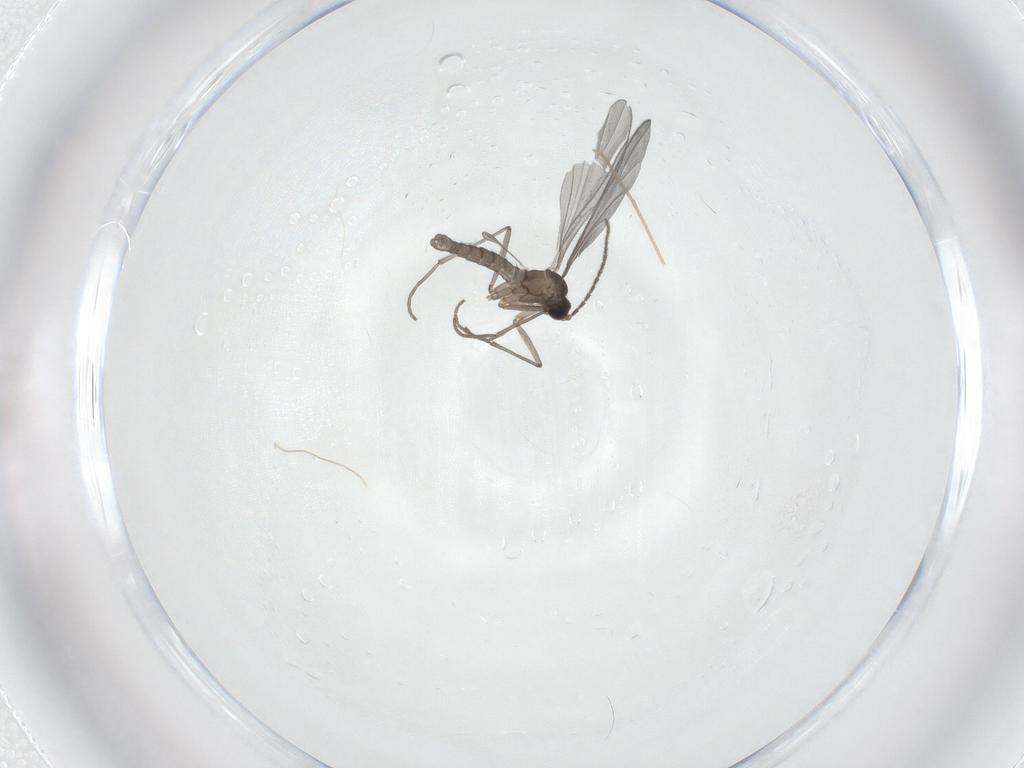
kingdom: Animalia
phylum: Arthropoda
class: Insecta
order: Diptera
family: Sciaridae
